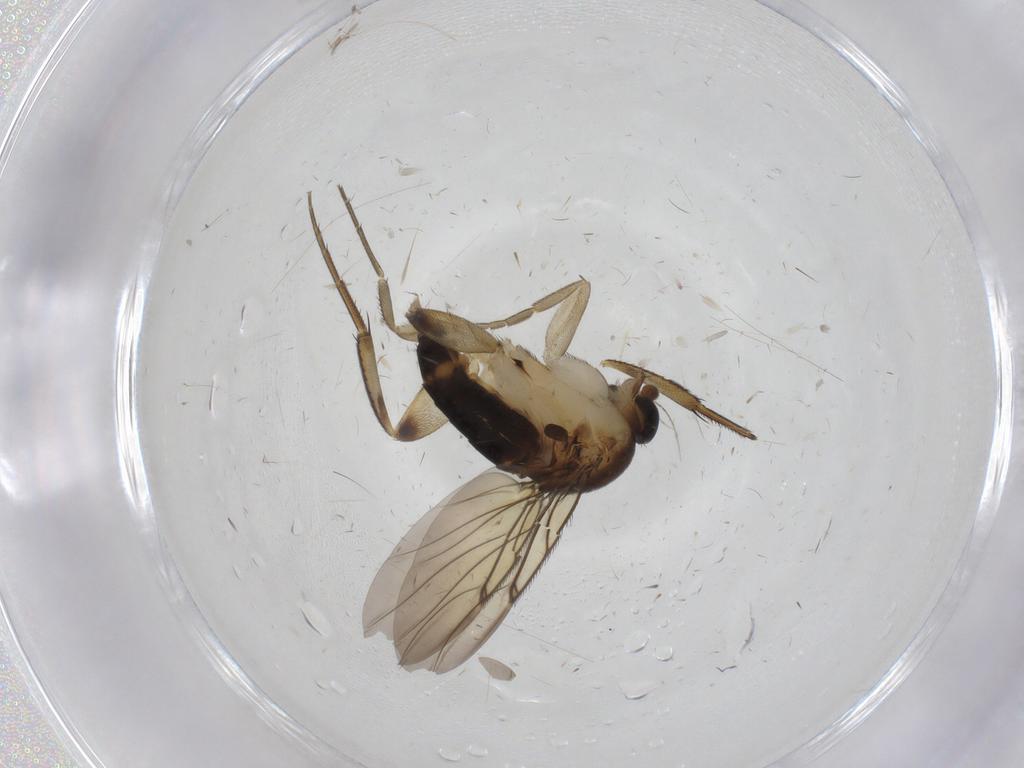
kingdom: Animalia
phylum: Arthropoda
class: Insecta
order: Diptera
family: Phoridae
